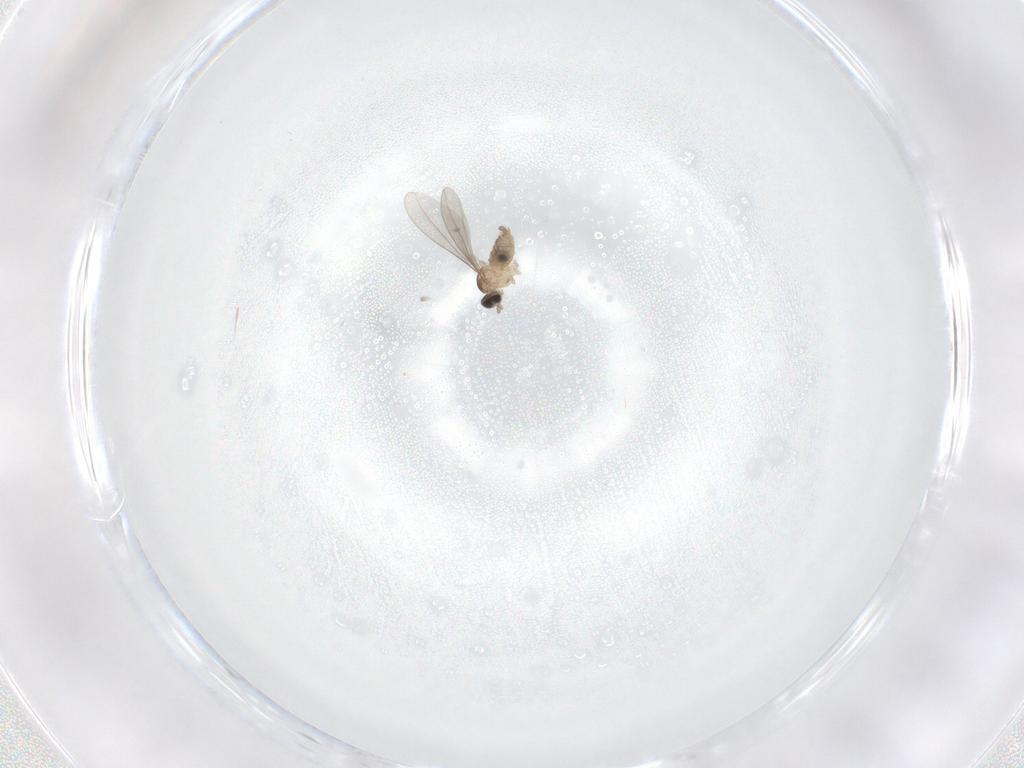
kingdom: Animalia
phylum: Arthropoda
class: Insecta
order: Diptera
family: Cecidomyiidae
